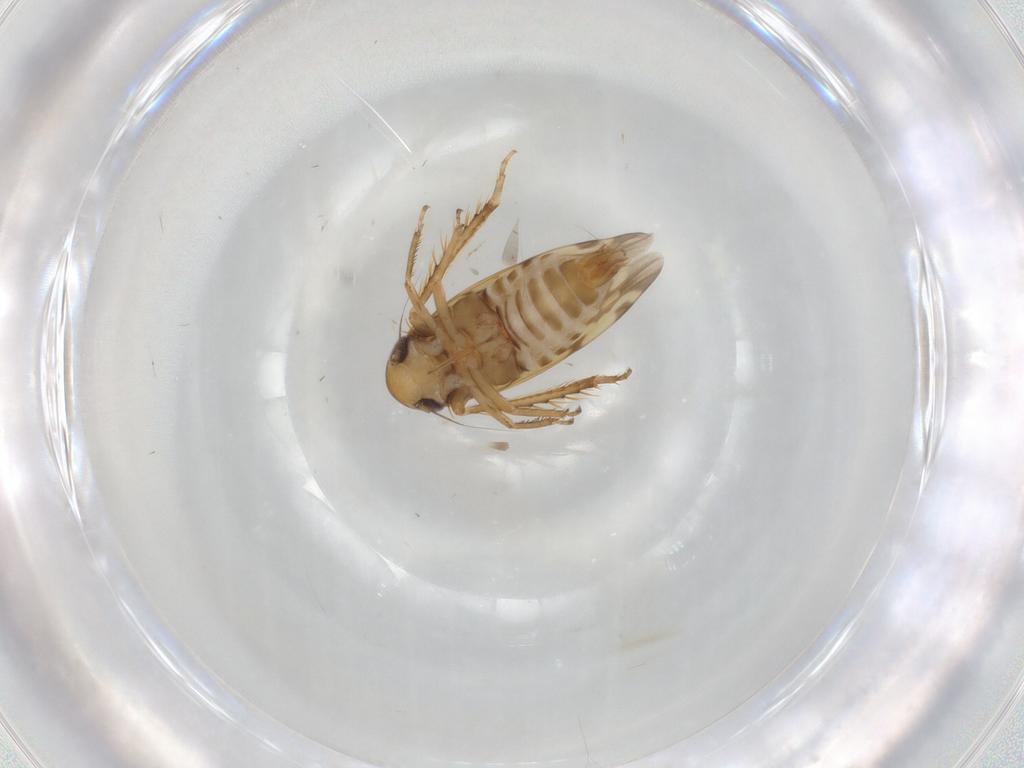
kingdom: Animalia
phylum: Arthropoda
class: Insecta
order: Hemiptera
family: Cicadellidae
